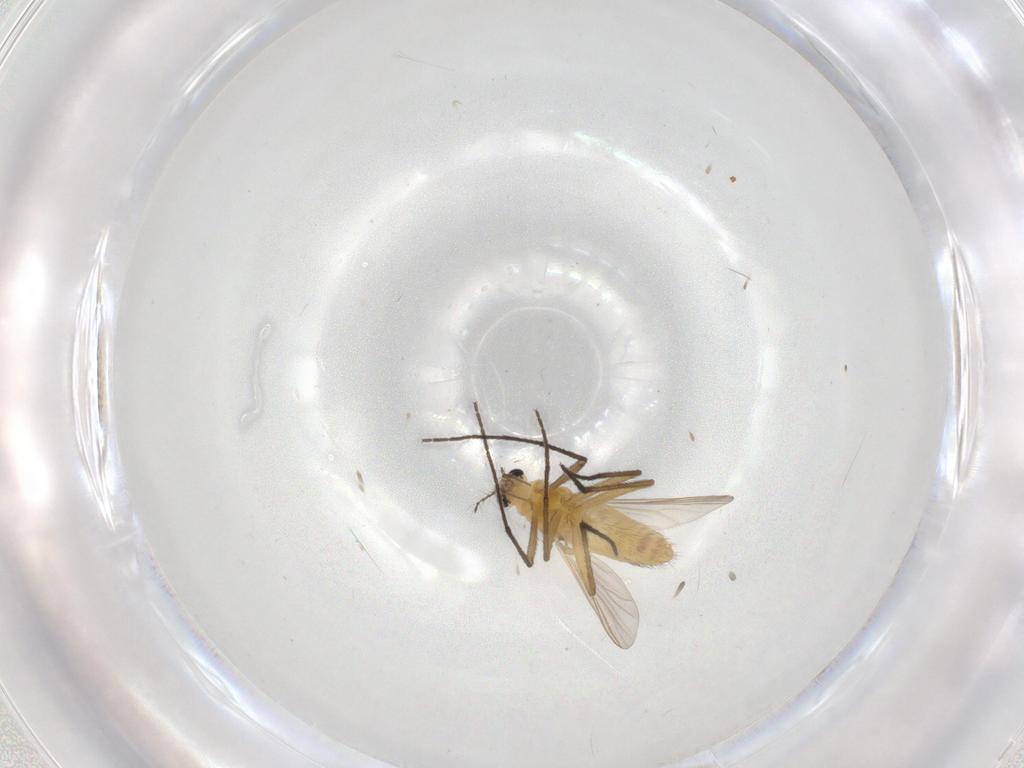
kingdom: Animalia
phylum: Arthropoda
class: Insecta
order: Diptera
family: Chironomidae
